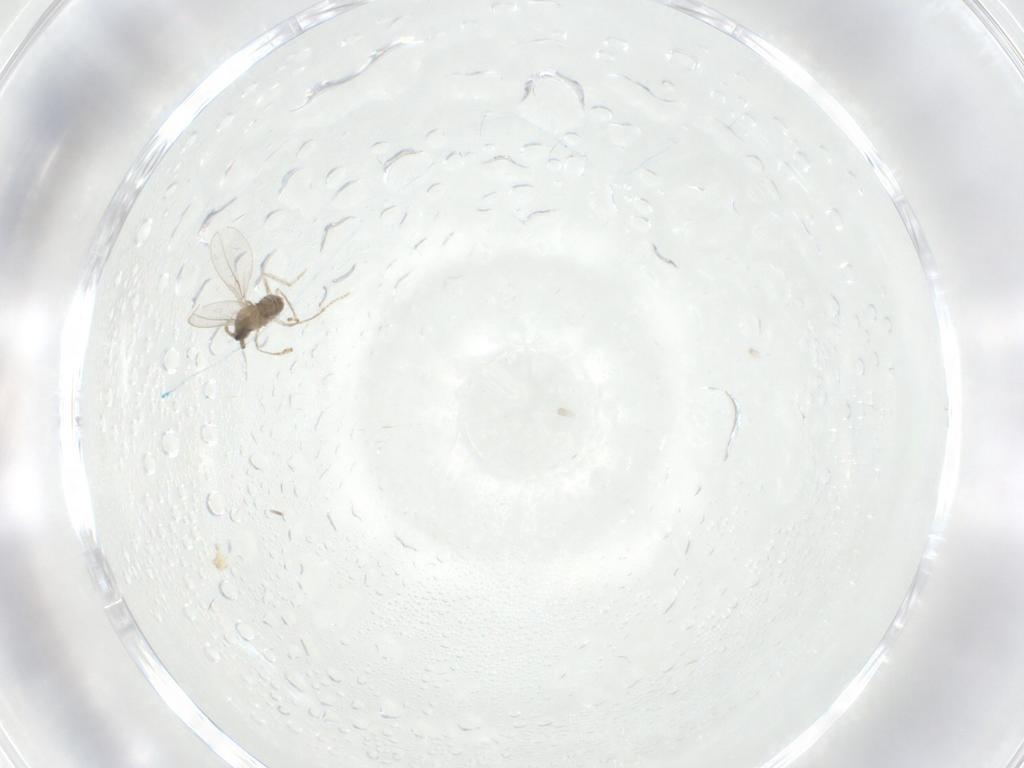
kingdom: Animalia
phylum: Arthropoda
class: Insecta
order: Diptera
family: Cecidomyiidae
